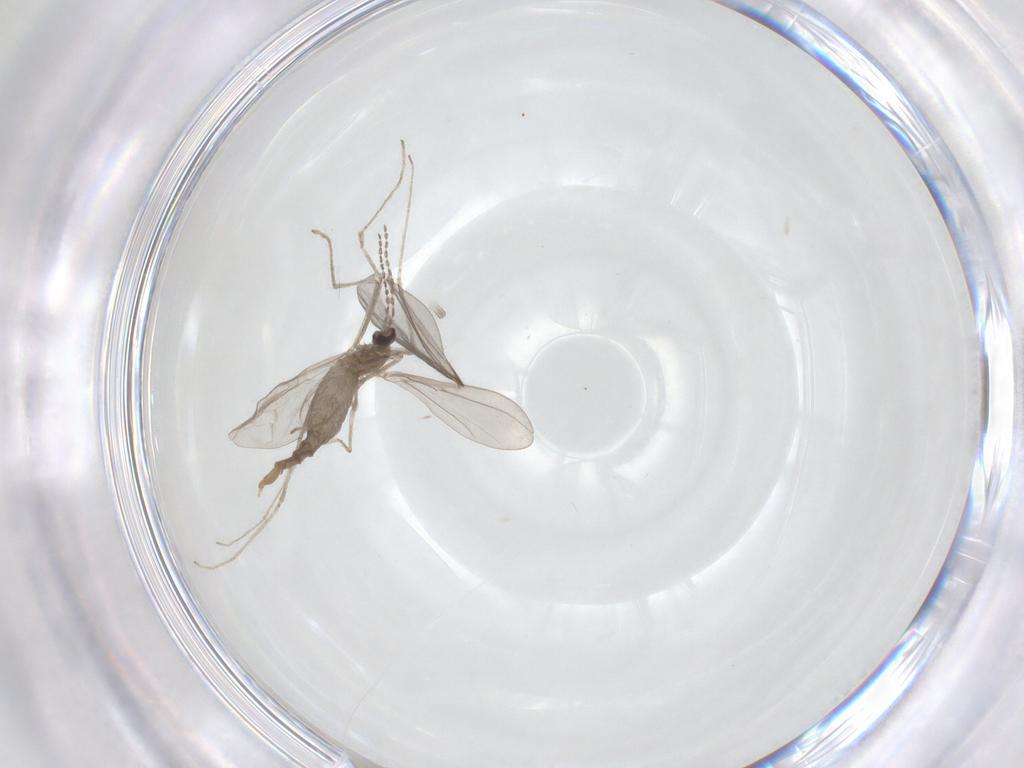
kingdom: Animalia
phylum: Arthropoda
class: Insecta
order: Diptera
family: Cecidomyiidae
